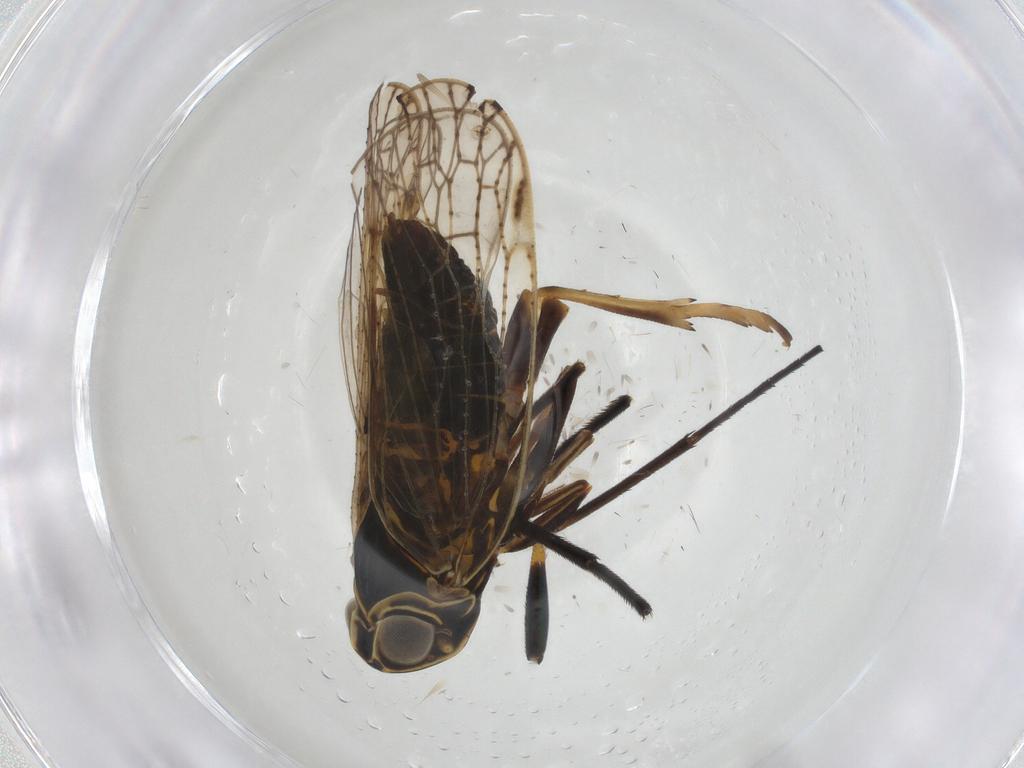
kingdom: Animalia
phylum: Arthropoda
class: Insecta
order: Hemiptera
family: Cixiidae
